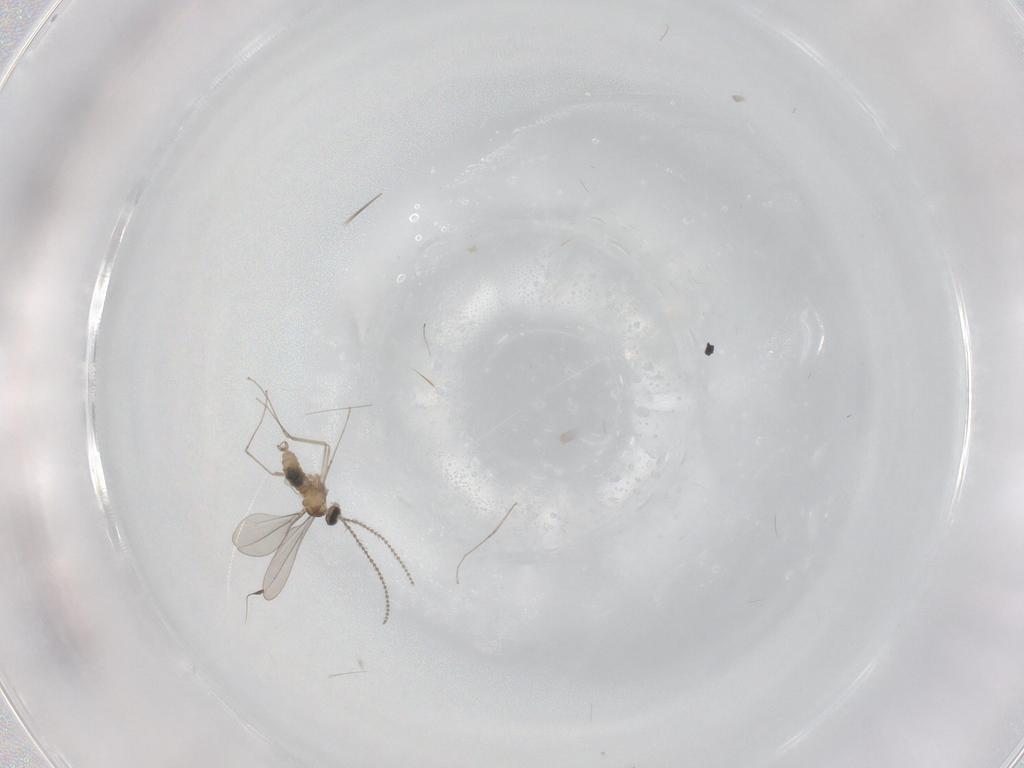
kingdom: Animalia
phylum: Arthropoda
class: Insecta
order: Diptera
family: Cecidomyiidae
